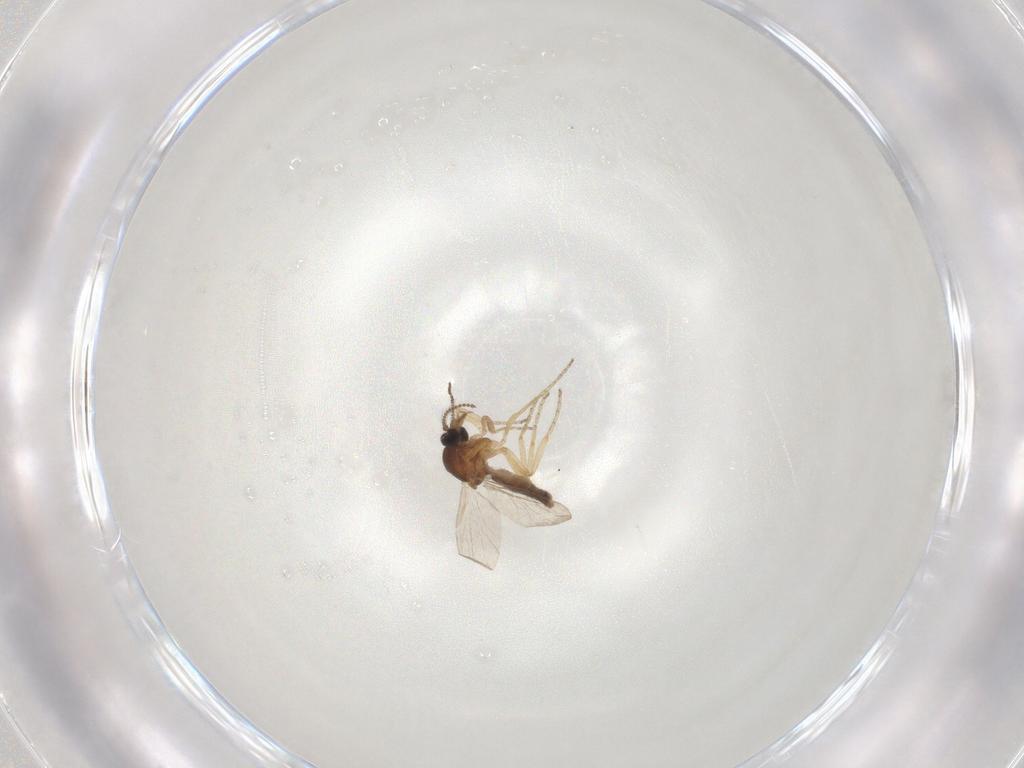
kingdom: Animalia
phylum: Arthropoda
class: Insecta
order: Diptera
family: Ceratopogonidae
